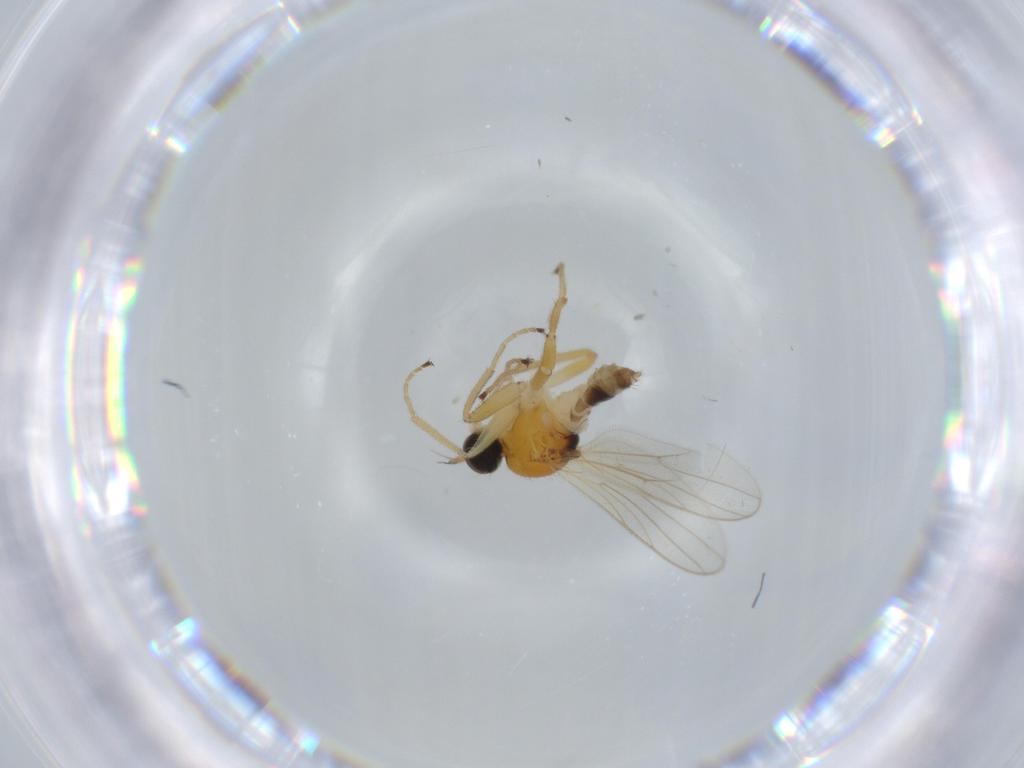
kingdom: Animalia
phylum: Arthropoda
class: Insecta
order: Diptera
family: Hybotidae
